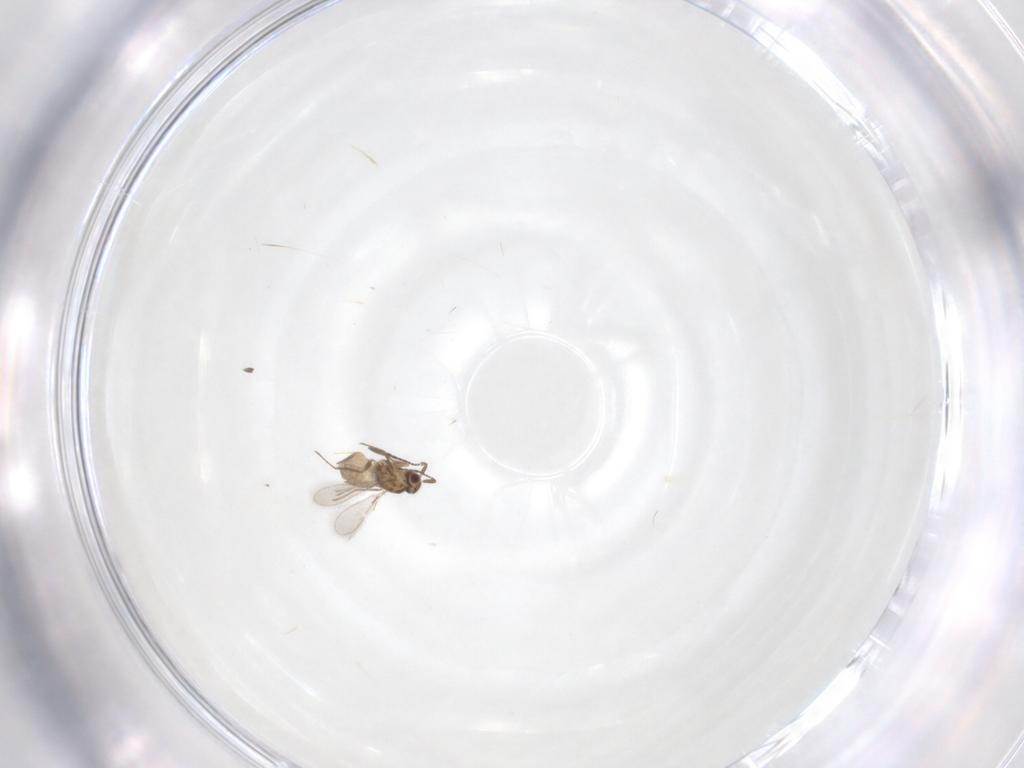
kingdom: Animalia
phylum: Arthropoda
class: Insecta
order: Hymenoptera
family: Mymaridae
